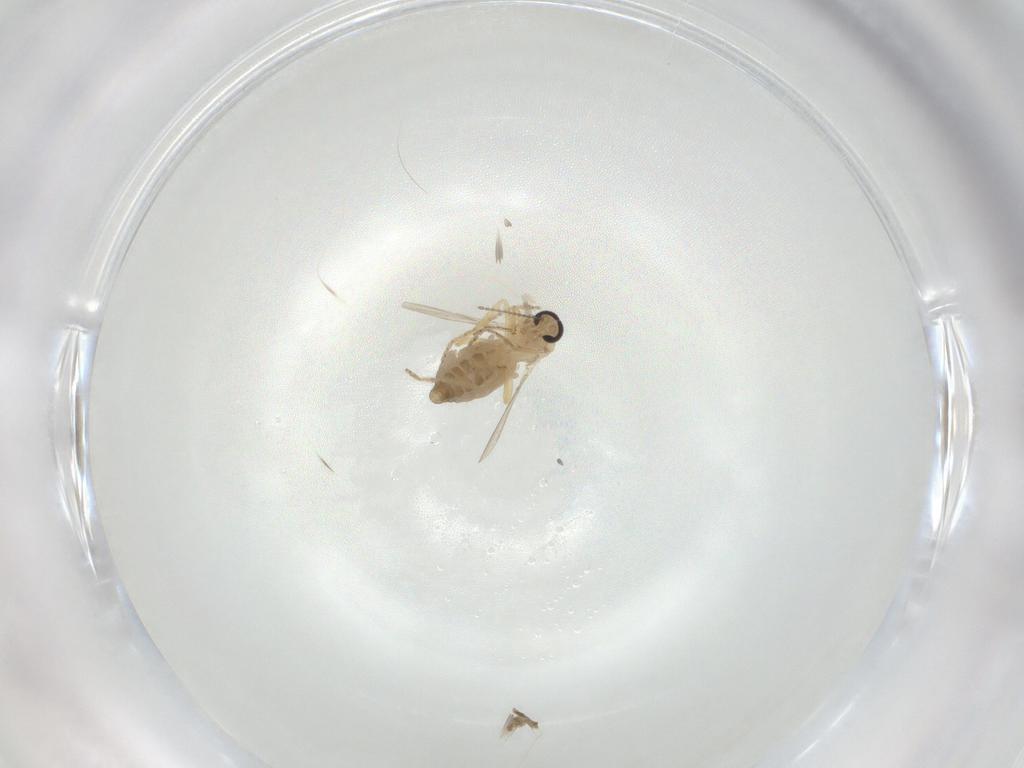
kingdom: Animalia
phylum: Arthropoda
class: Insecta
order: Diptera
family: Ceratopogonidae
